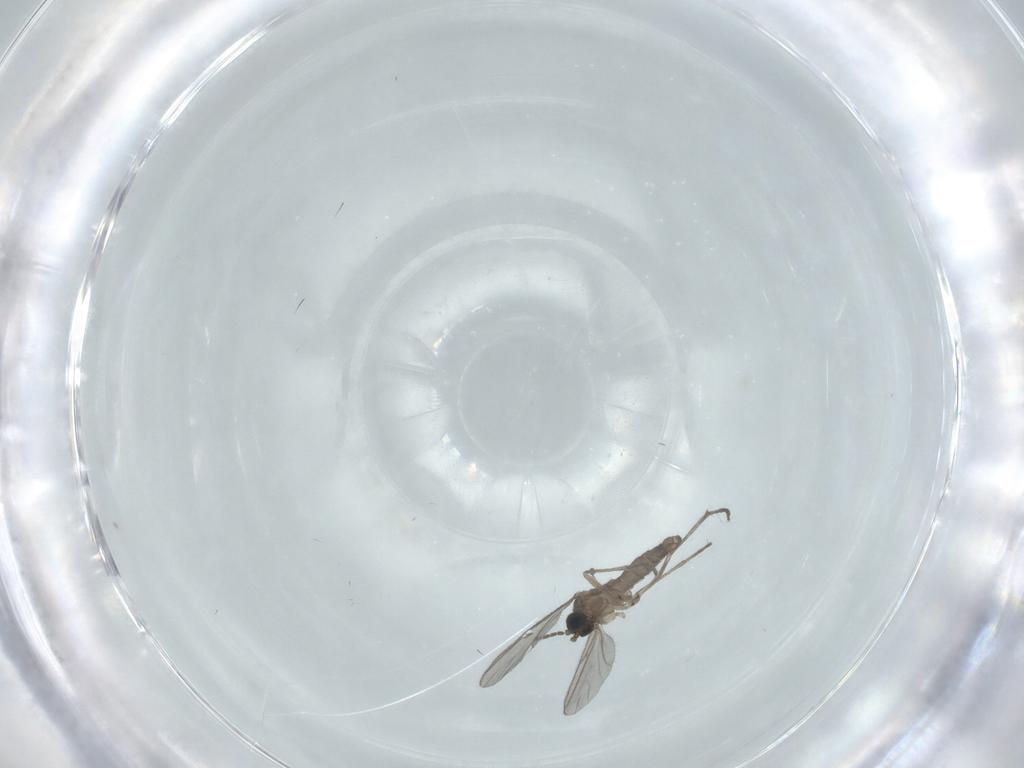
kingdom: Animalia
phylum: Arthropoda
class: Insecta
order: Diptera
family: Sciaridae
